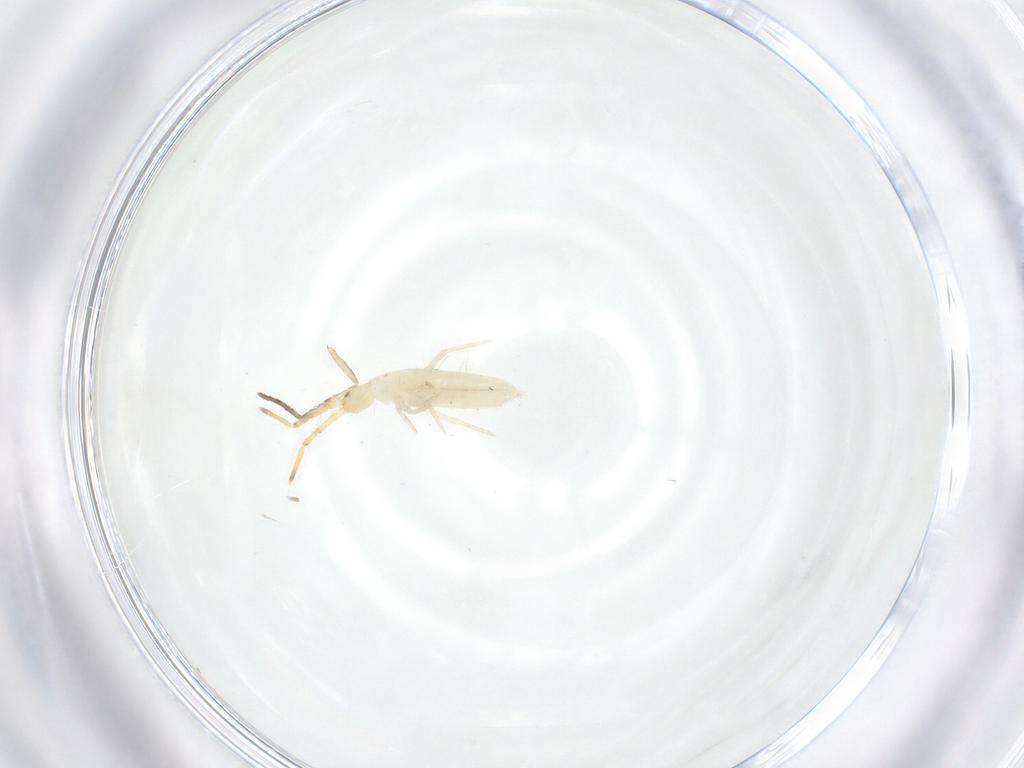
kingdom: Animalia
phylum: Arthropoda
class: Collembola
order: Entomobryomorpha
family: Entomobryidae
